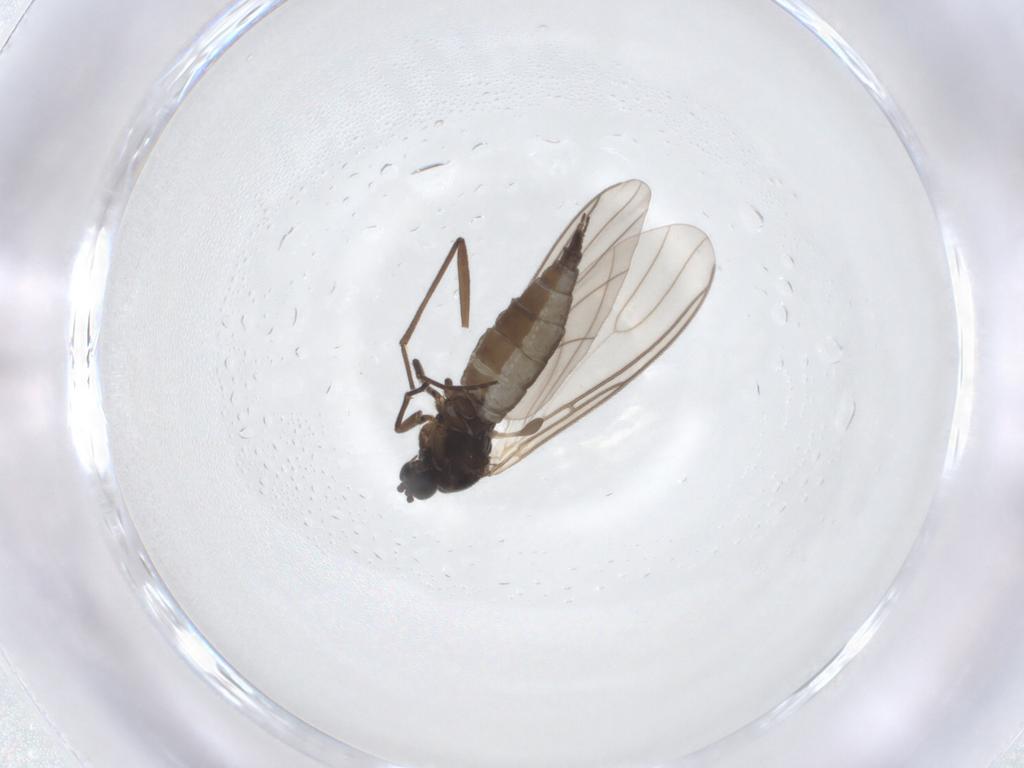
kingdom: Animalia
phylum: Arthropoda
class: Insecta
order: Diptera
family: Sciaridae
